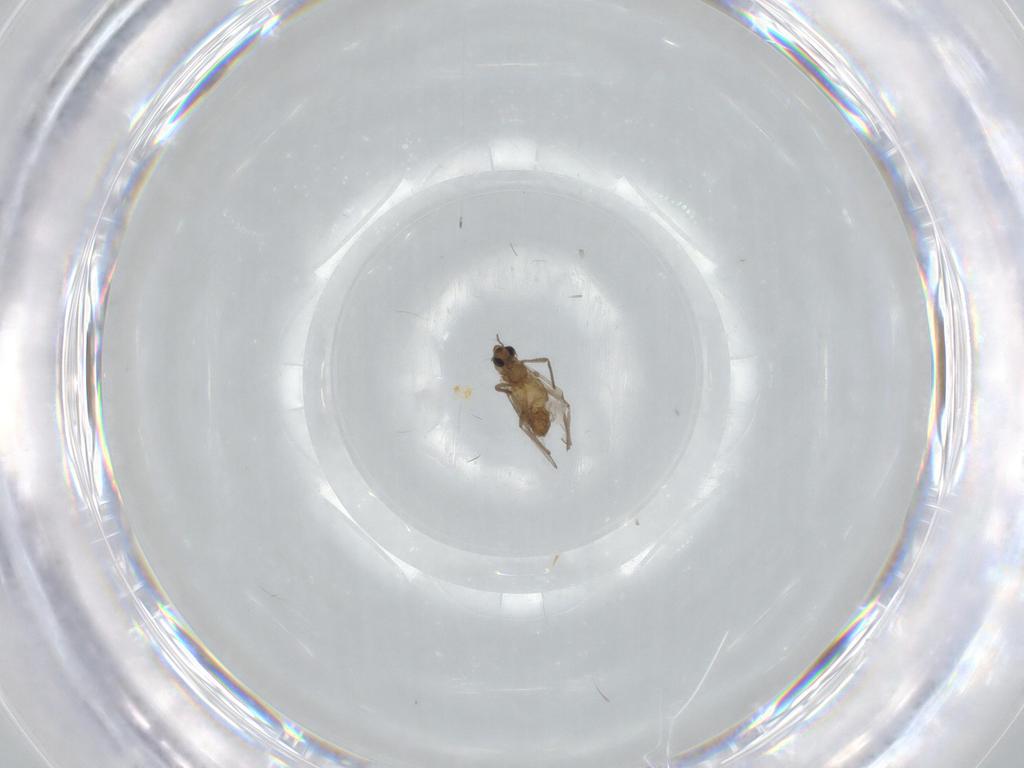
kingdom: Animalia
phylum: Arthropoda
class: Insecta
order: Diptera
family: Chironomidae
